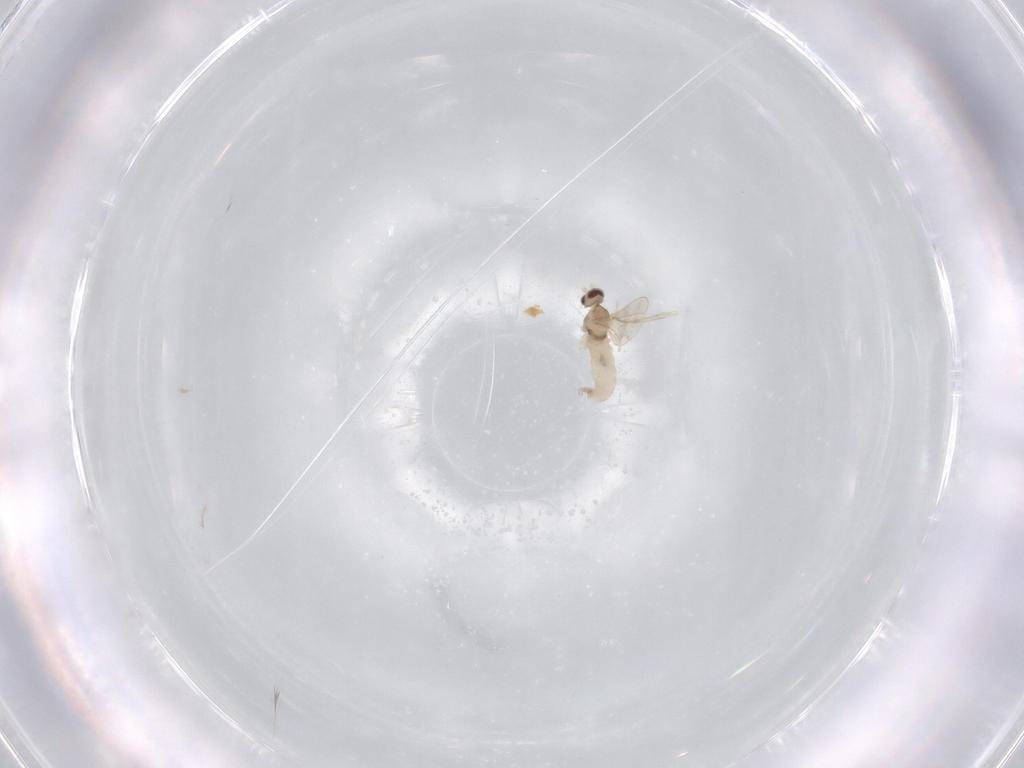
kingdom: Animalia
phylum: Arthropoda
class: Insecta
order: Diptera
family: Cecidomyiidae
